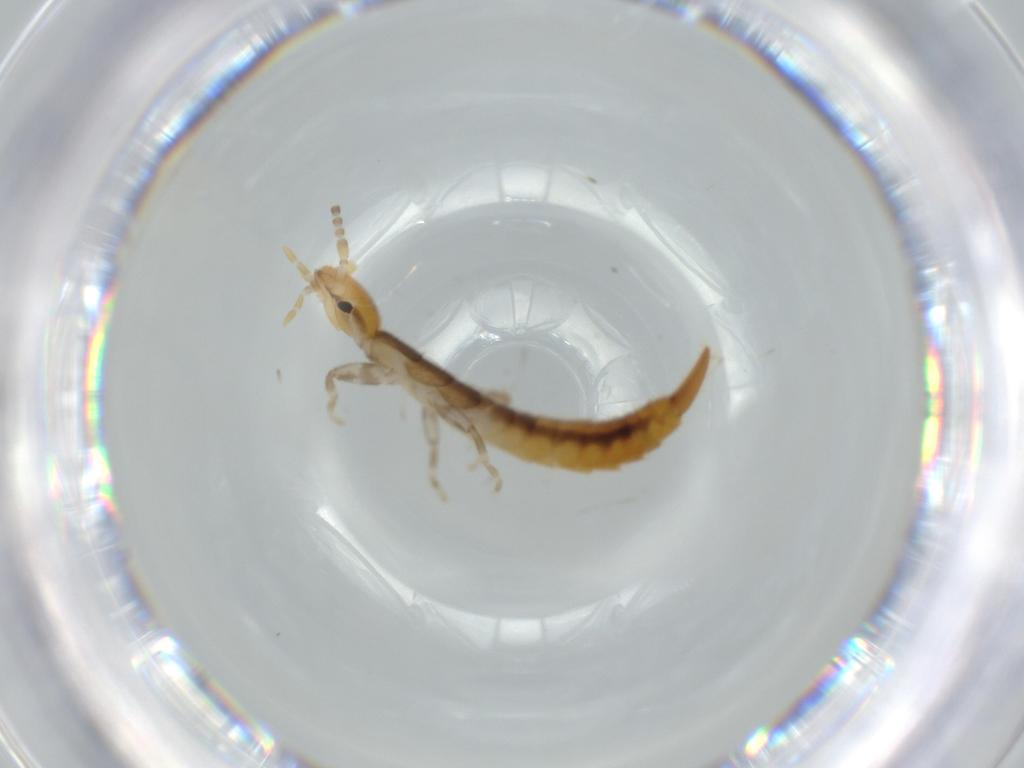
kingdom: Animalia
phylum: Arthropoda
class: Insecta
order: Dermaptera
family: Forficulidae
